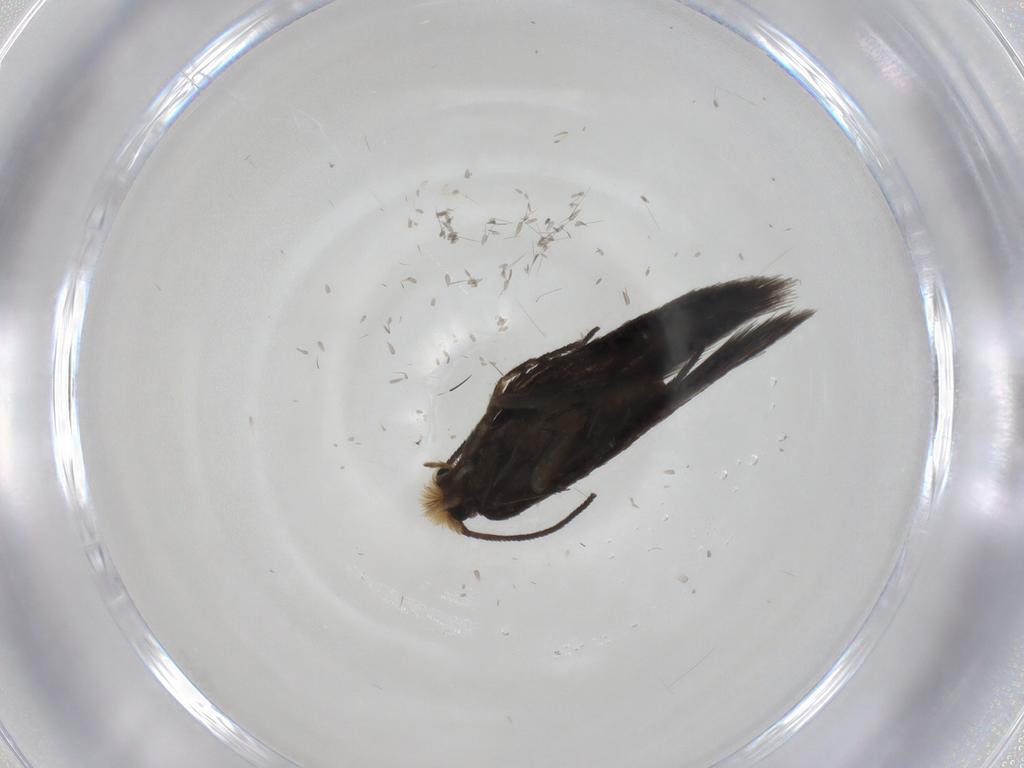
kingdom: Animalia
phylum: Arthropoda
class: Insecta
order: Lepidoptera
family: Nepticulidae
